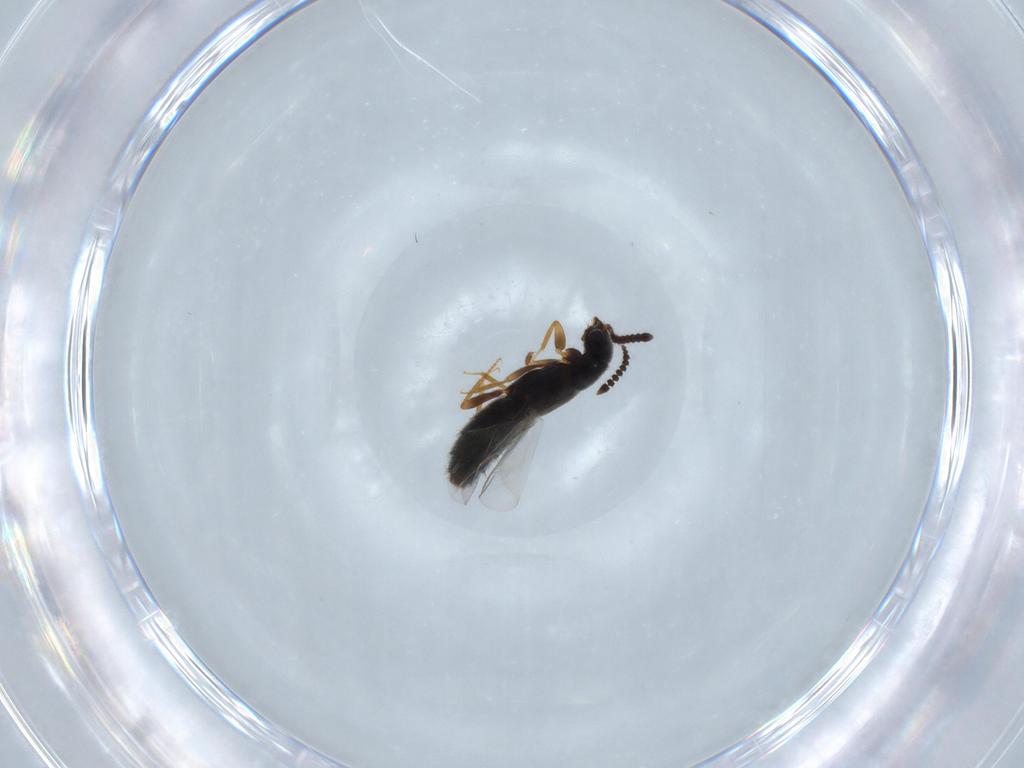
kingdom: Animalia
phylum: Arthropoda
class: Insecta
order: Coleoptera
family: Staphylinidae
